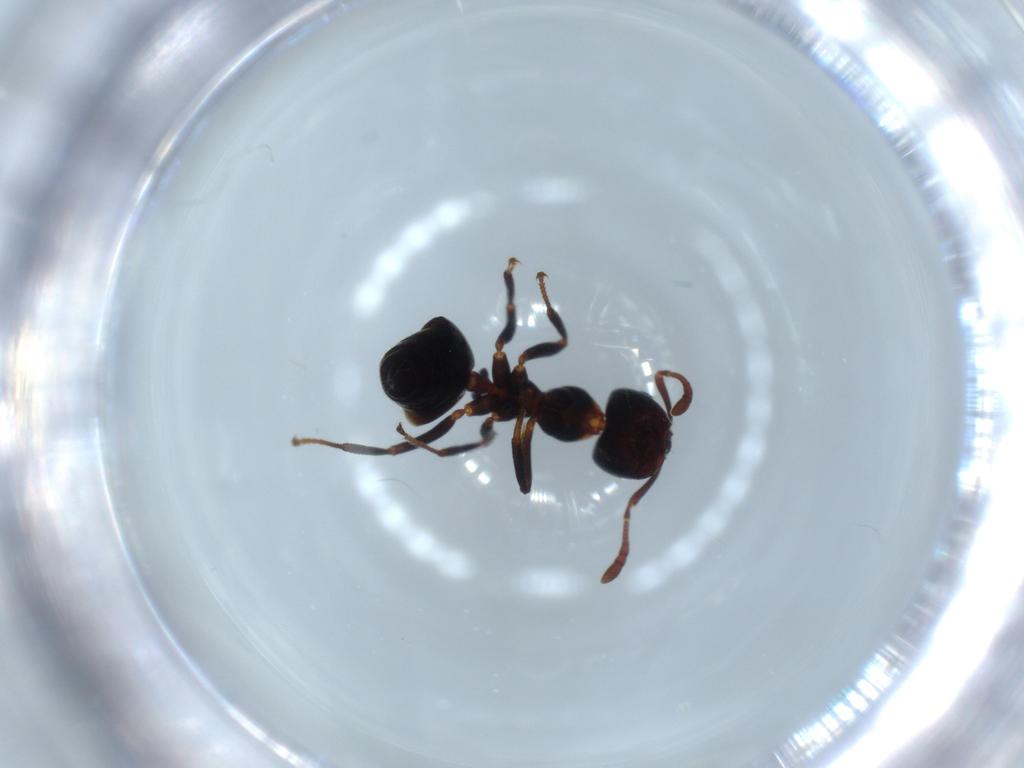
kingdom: Animalia
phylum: Arthropoda
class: Insecta
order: Hymenoptera
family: Formicidae
